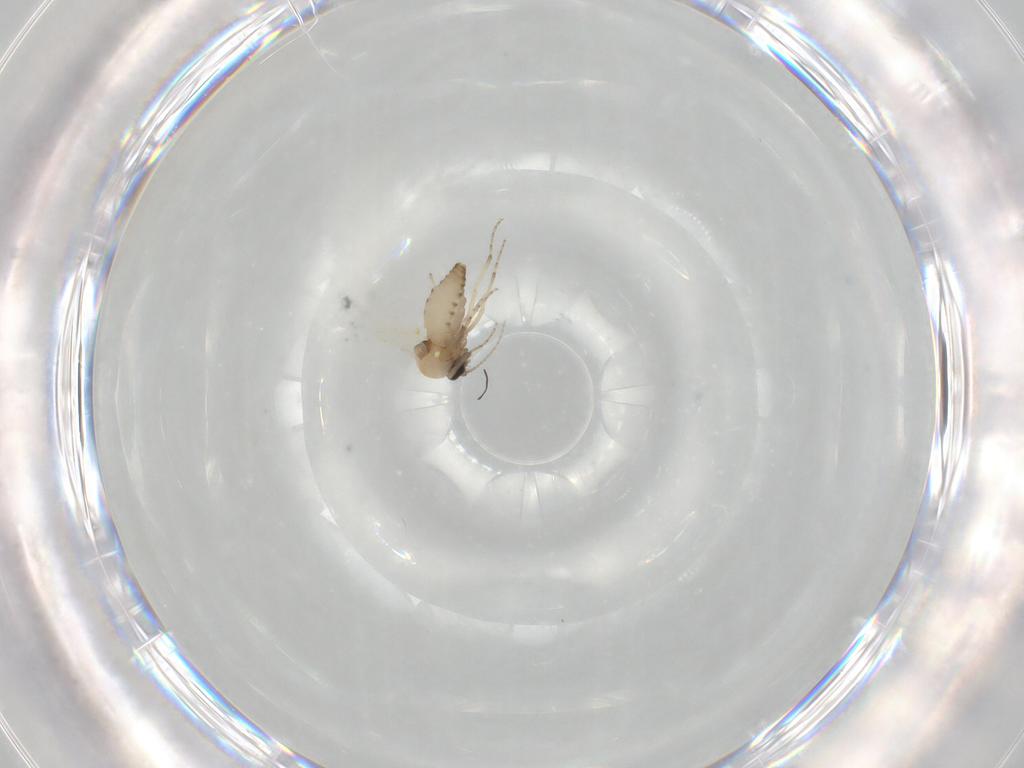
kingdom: Animalia
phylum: Arthropoda
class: Insecta
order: Diptera
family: Ceratopogonidae
